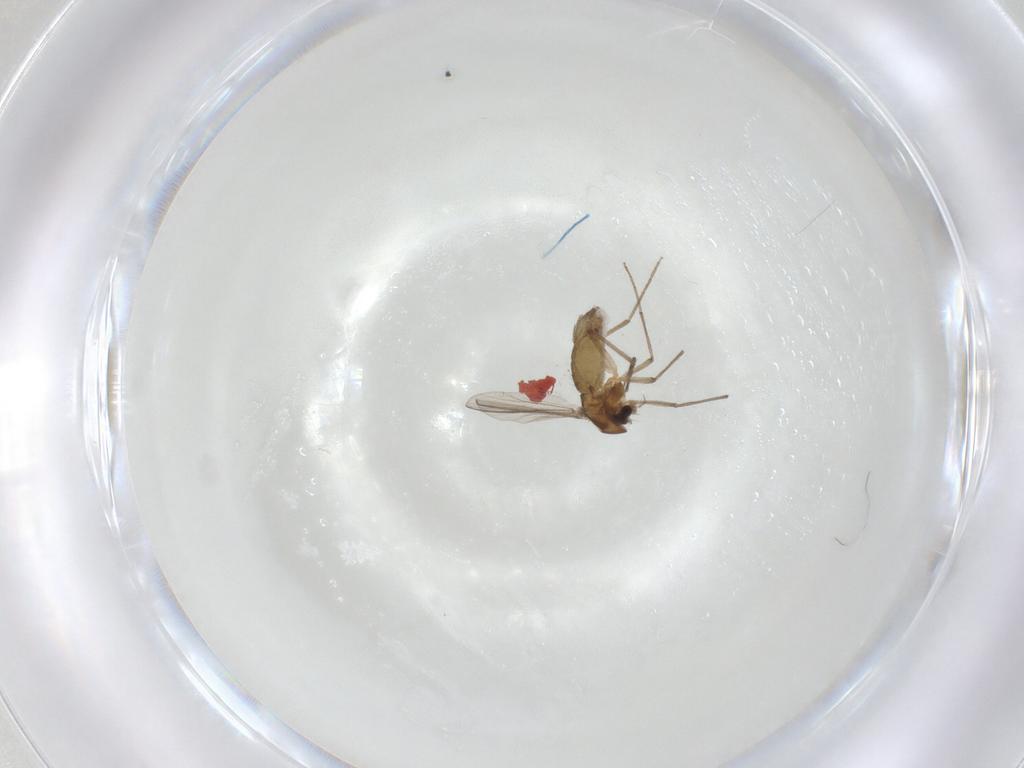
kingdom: Animalia
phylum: Arthropoda
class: Insecta
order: Diptera
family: Chironomidae
